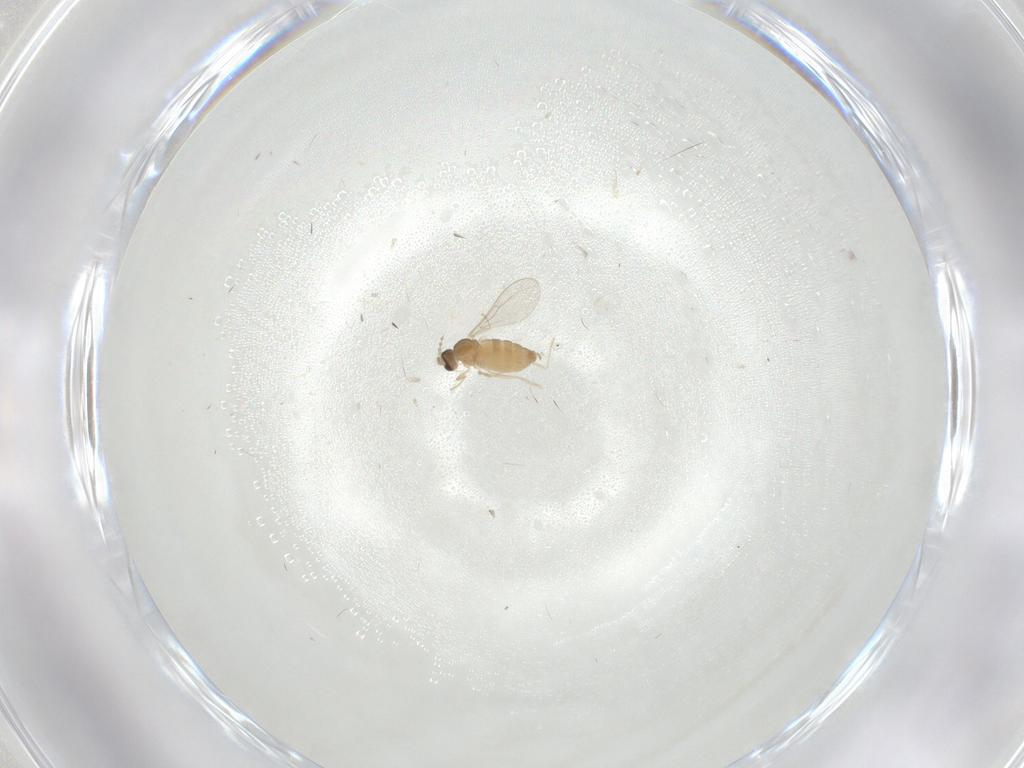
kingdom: Animalia
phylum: Arthropoda
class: Insecta
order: Diptera
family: Cecidomyiidae
